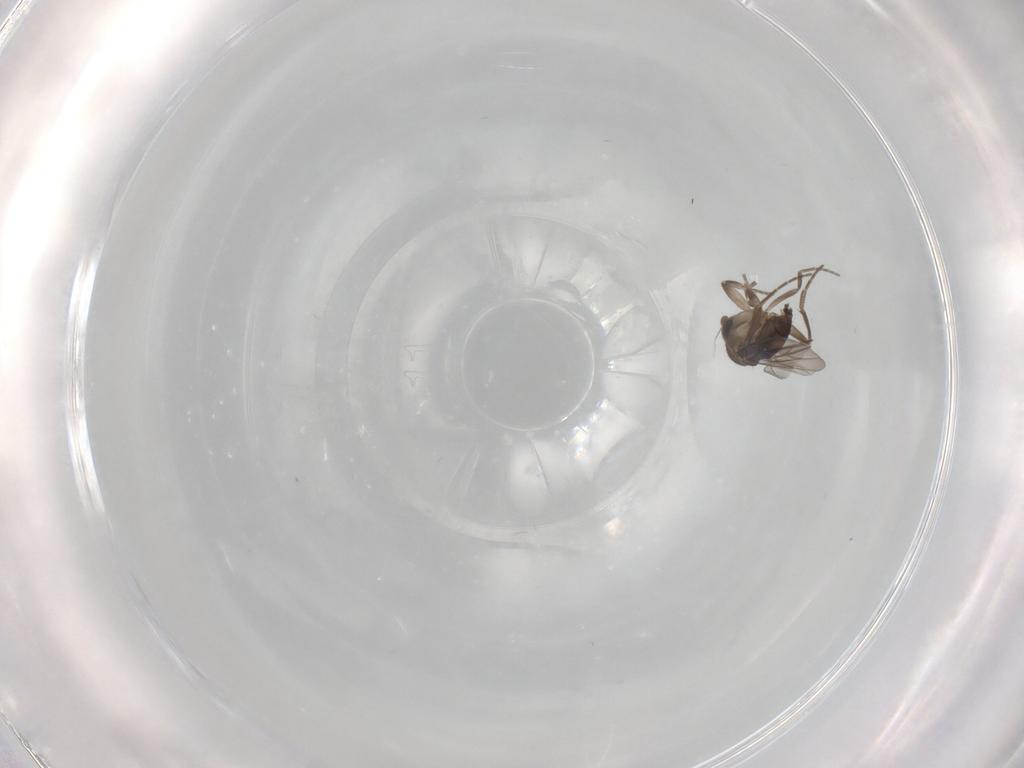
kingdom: Animalia
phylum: Arthropoda
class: Insecta
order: Diptera
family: Phoridae
